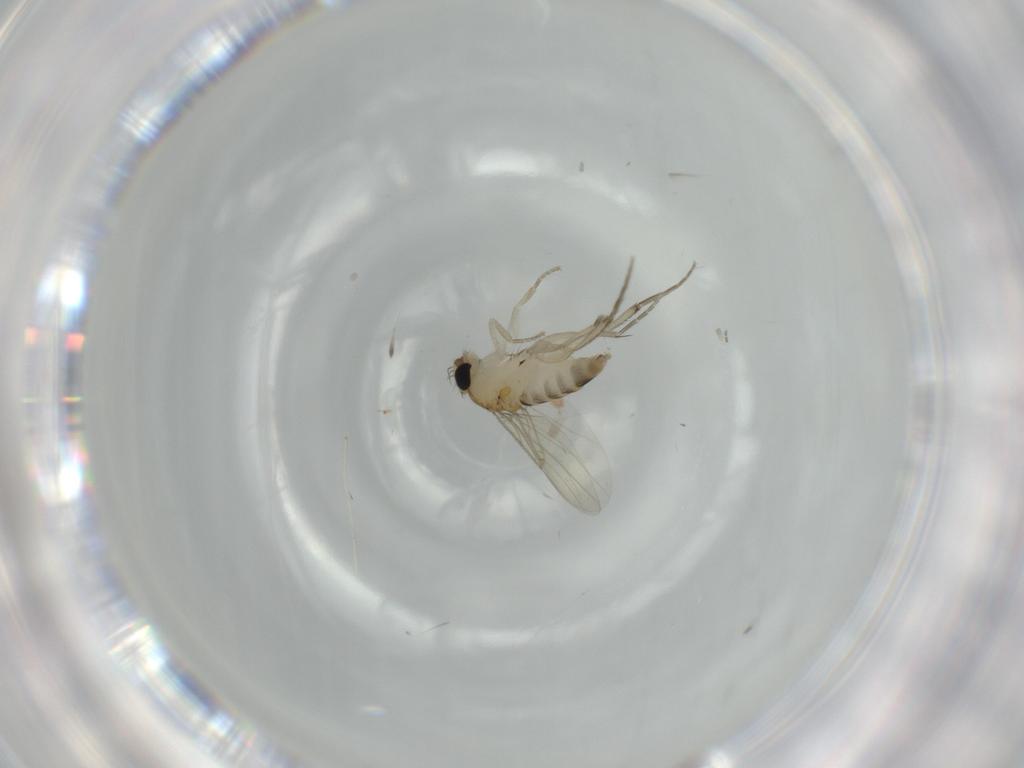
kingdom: Animalia
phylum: Arthropoda
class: Insecta
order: Diptera
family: Phoridae
